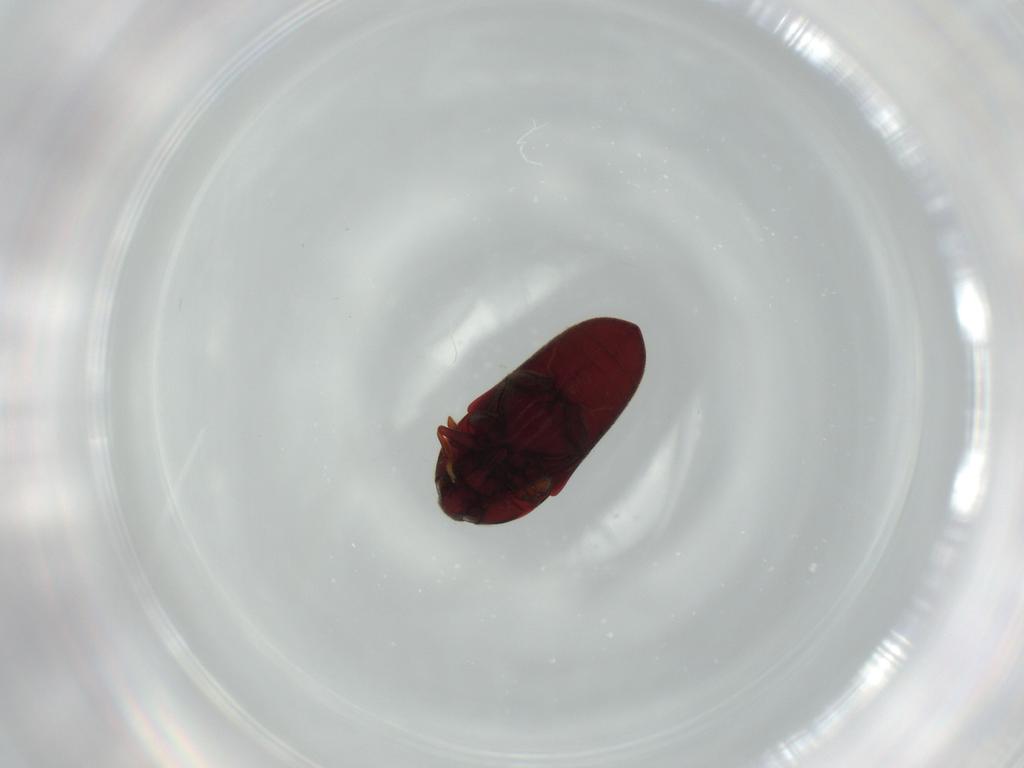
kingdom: Animalia
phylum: Arthropoda
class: Insecta
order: Coleoptera
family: Throscidae
